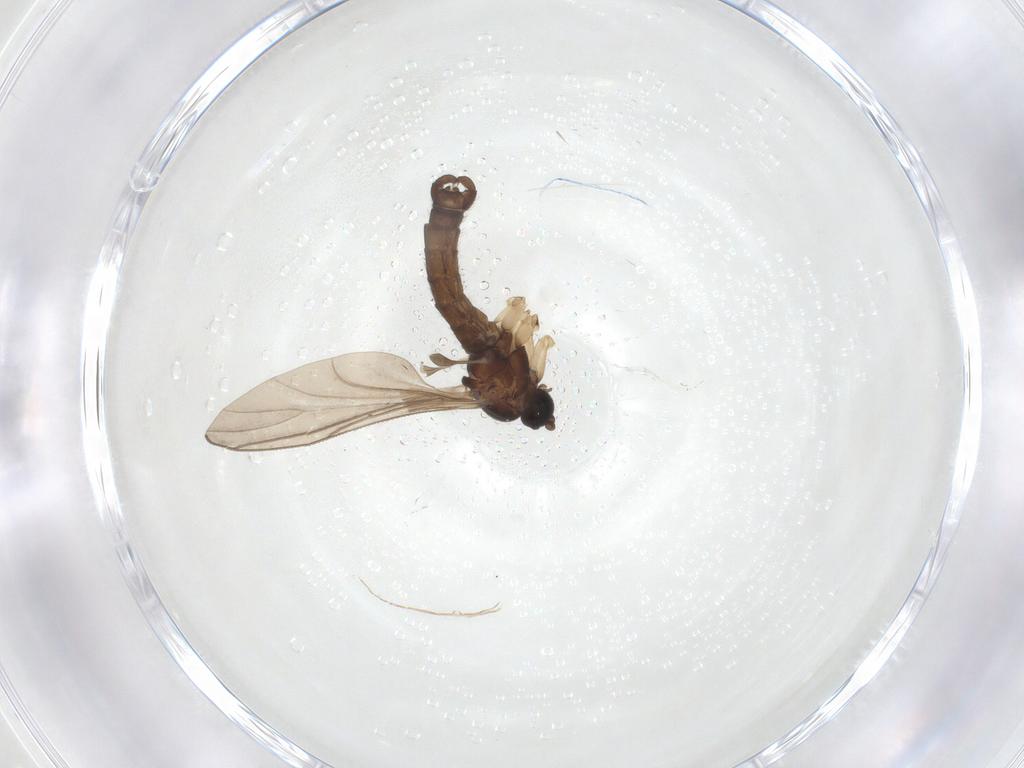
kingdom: Animalia
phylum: Arthropoda
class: Insecta
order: Diptera
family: Sciaridae
